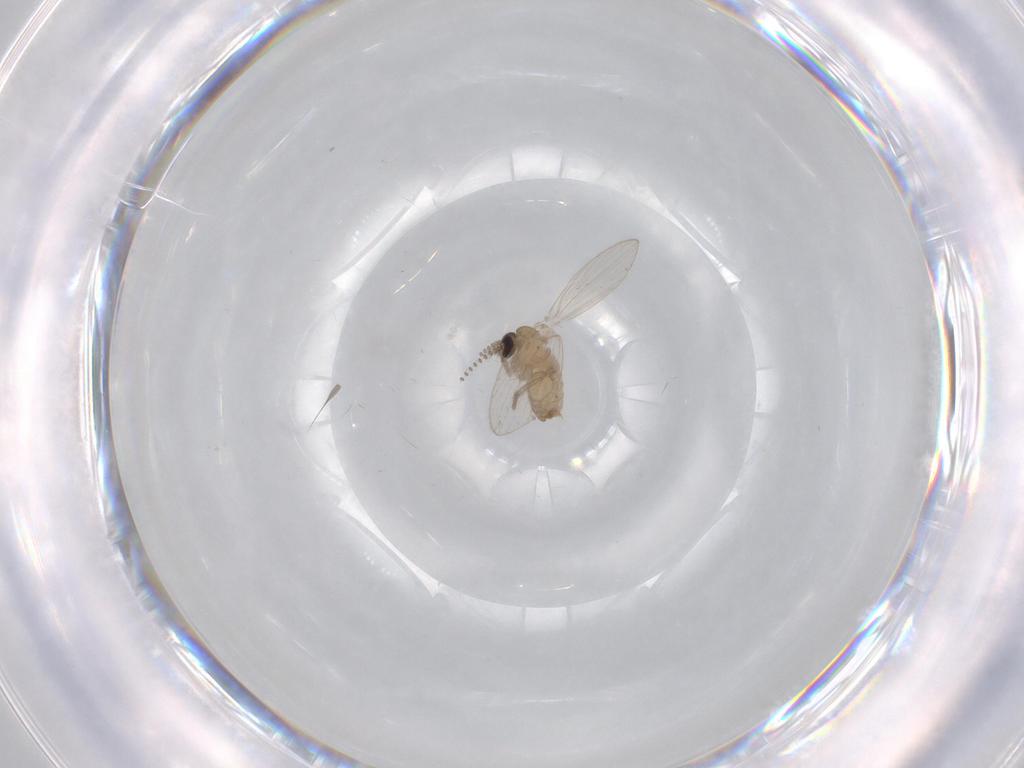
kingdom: Animalia
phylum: Arthropoda
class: Insecta
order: Diptera
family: Psychodidae
